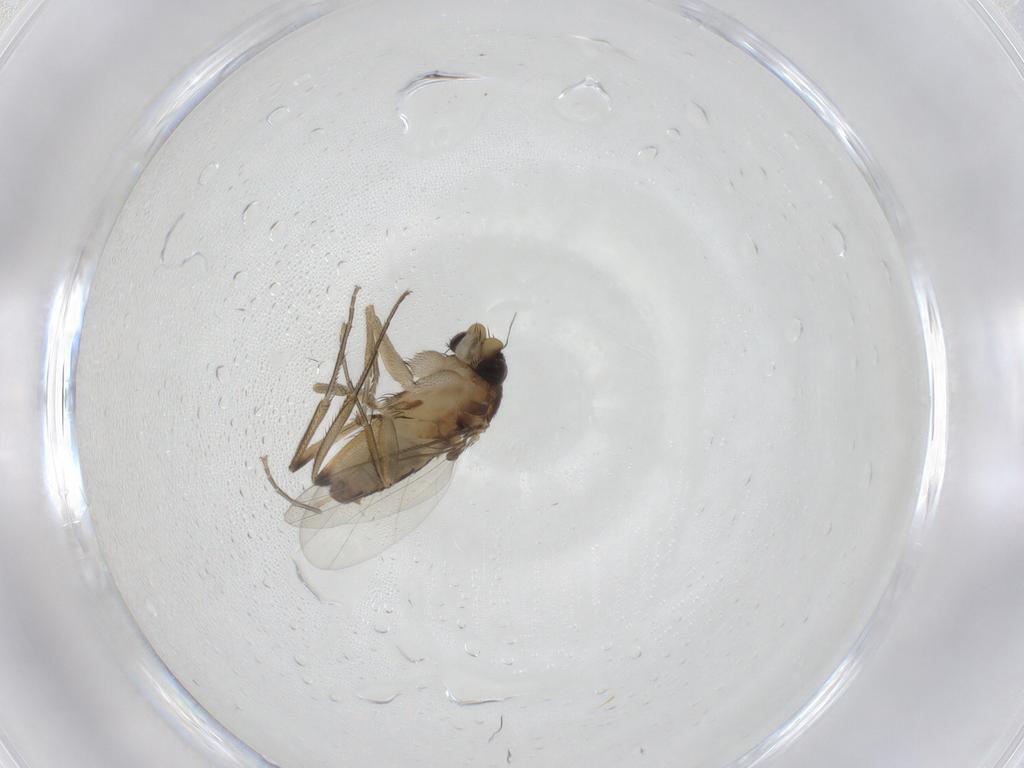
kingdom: Animalia
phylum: Arthropoda
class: Insecta
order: Diptera
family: Phoridae
